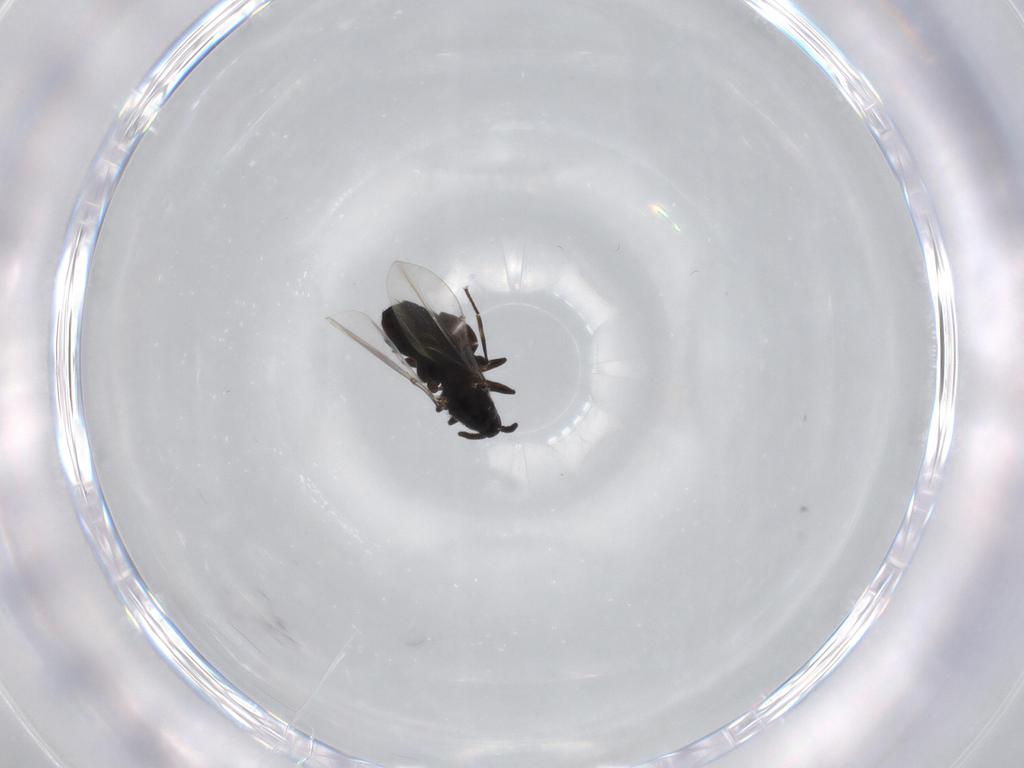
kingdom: Animalia
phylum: Arthropoda
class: Insecta
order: Diptera
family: Scatopsidae
